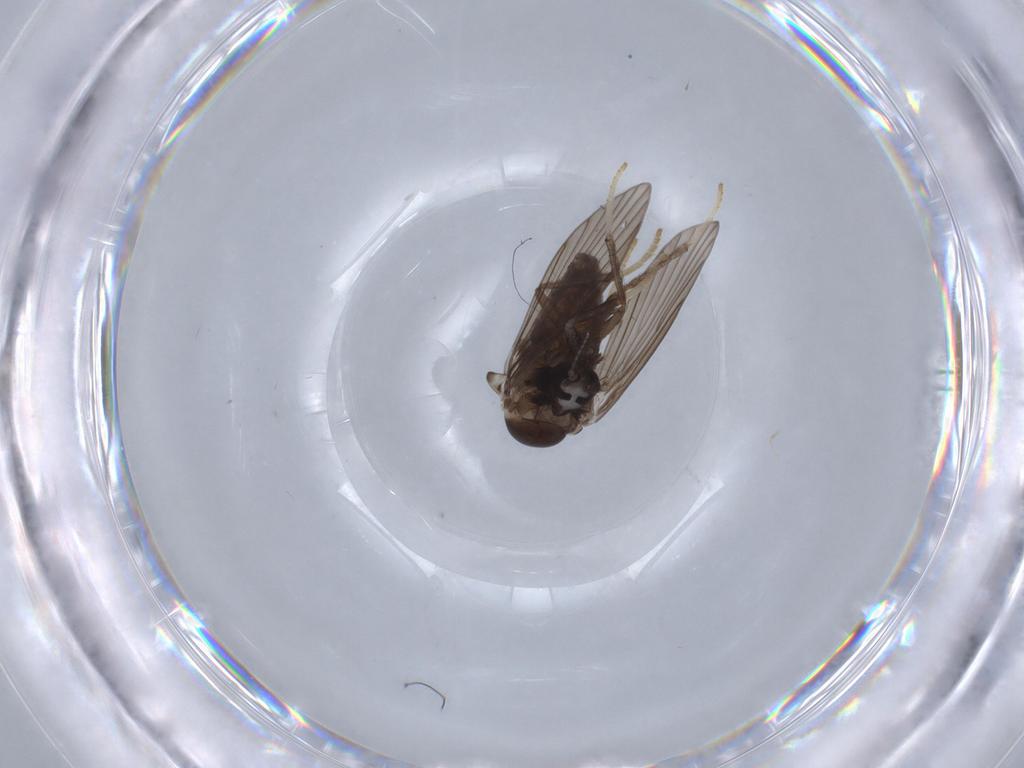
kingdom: Animalia
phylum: Arthropoda
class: Insecta
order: Diptera
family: Psychodidae
